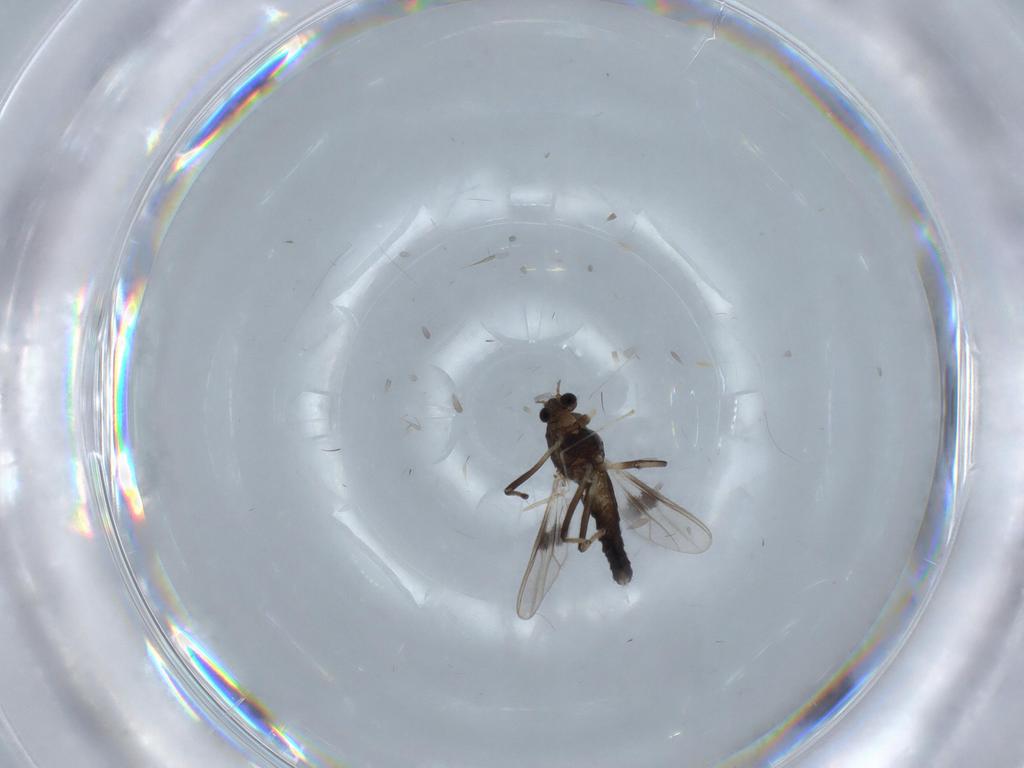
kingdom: Animalia
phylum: Arthropoda
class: Insecta
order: Diptera
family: Chironomidae
